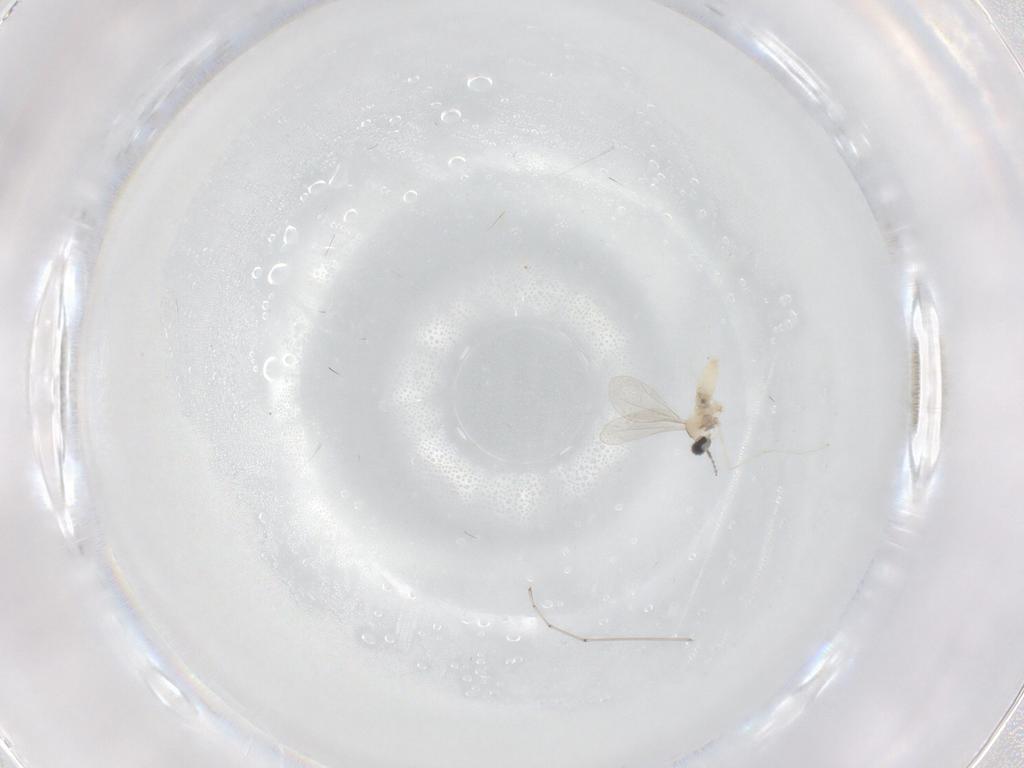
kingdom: Animalia
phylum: Arthropoda
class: Insecta
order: Diptera
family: Cecidomyiidae
